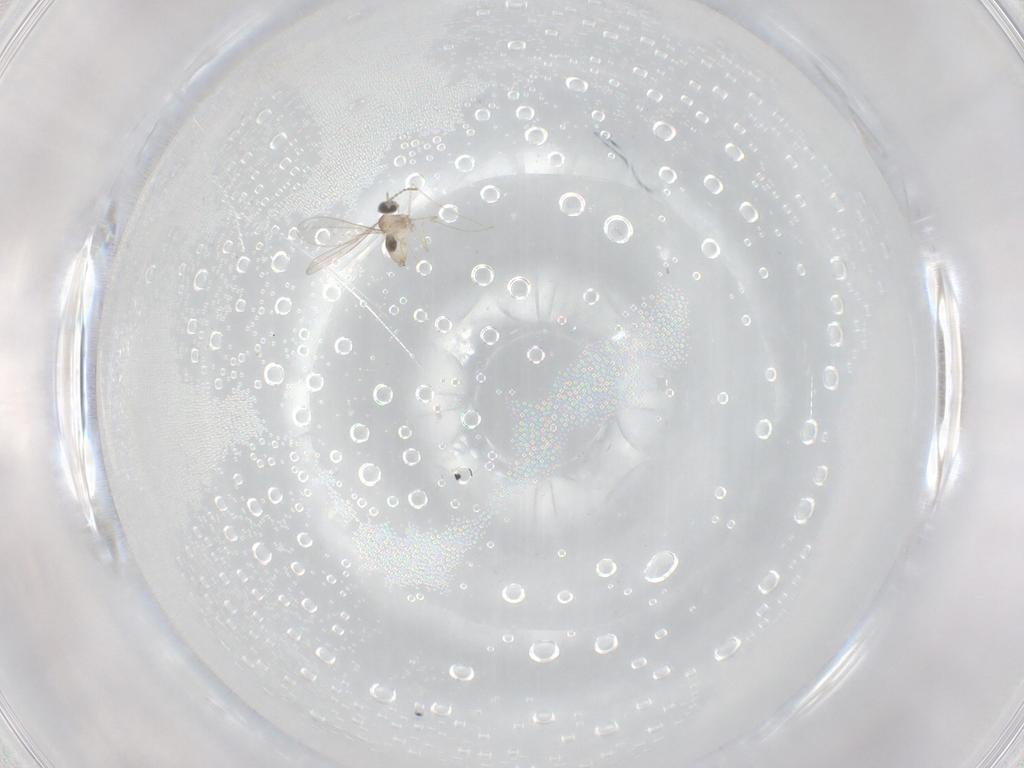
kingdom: Animalia
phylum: Arthropoda
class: Insecta
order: Diptera
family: Cecidomyiidae
